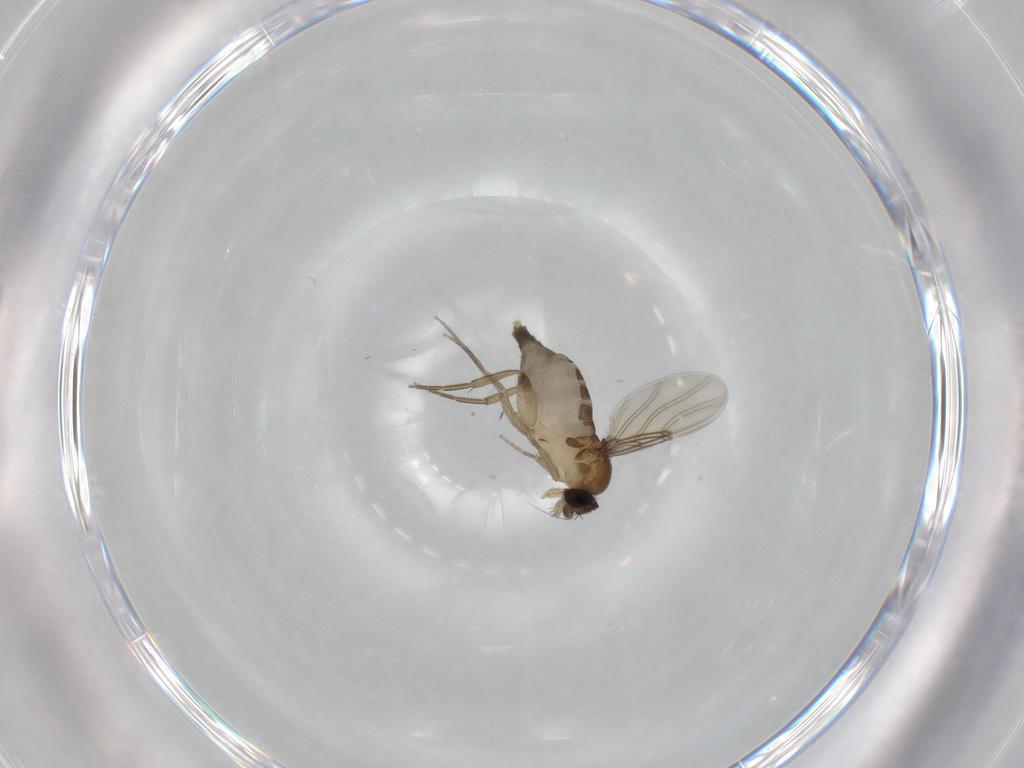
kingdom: Animalia
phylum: Arthropoda
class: Insecta
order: Diptera
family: Phoridae
